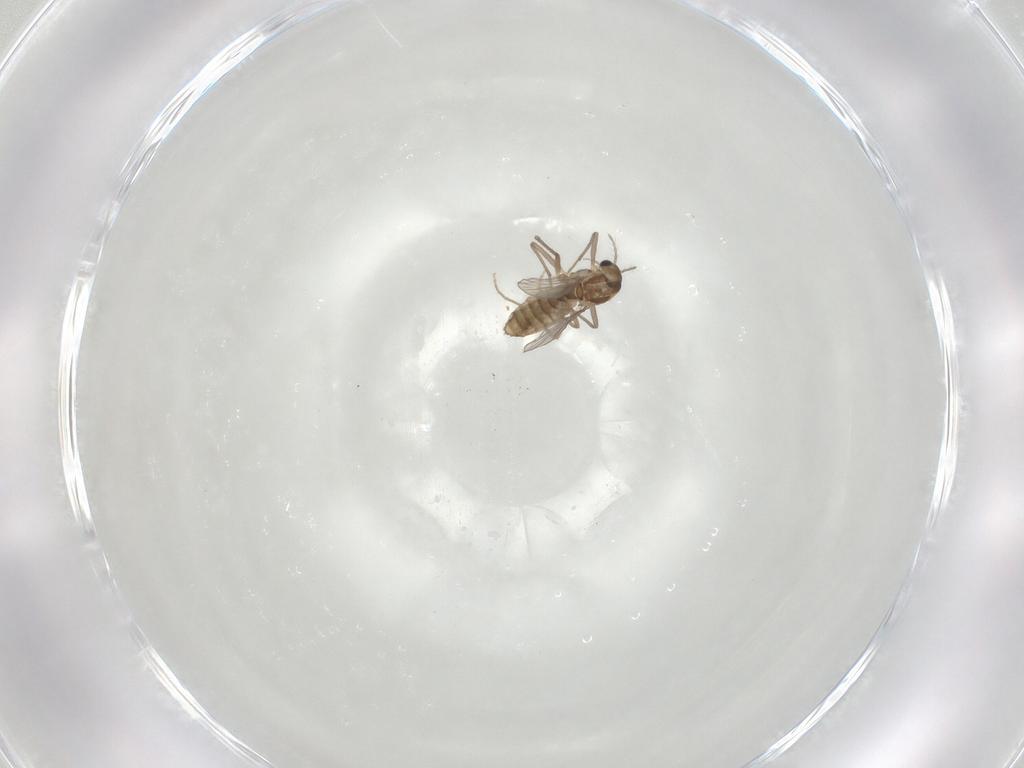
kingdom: Animalia
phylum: Arthropoda
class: Insecta
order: Diptera
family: Chironomidae
